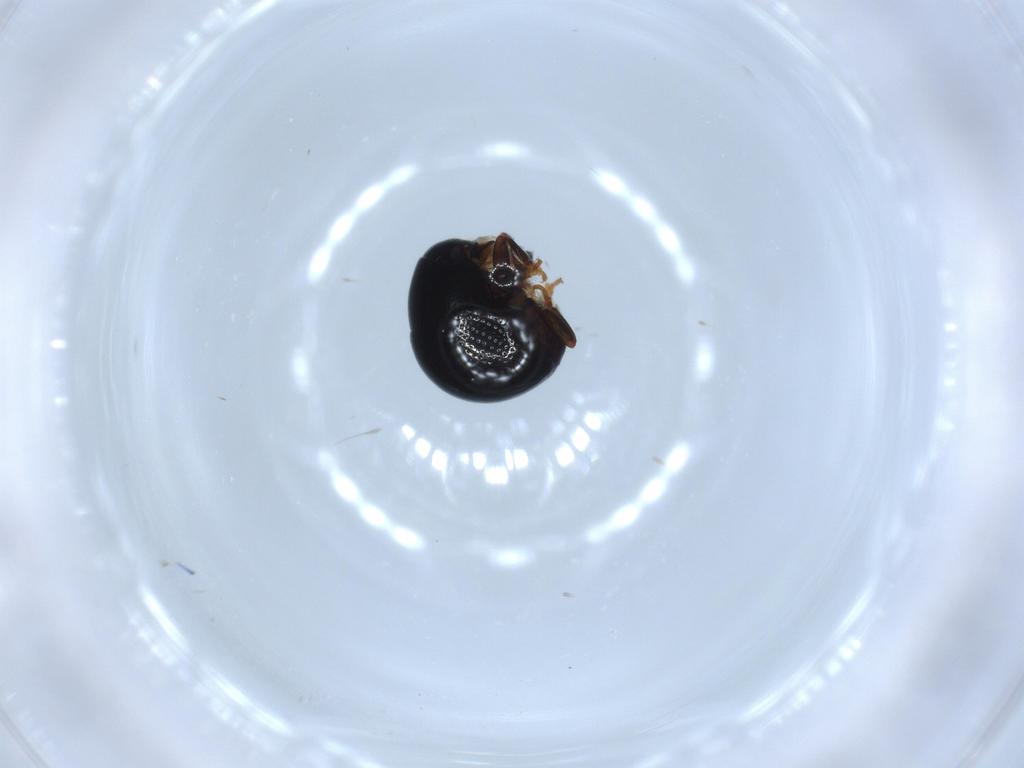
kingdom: Animalia
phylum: Arthropoda
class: Insecta
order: Coleoptera
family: Anthribidae
